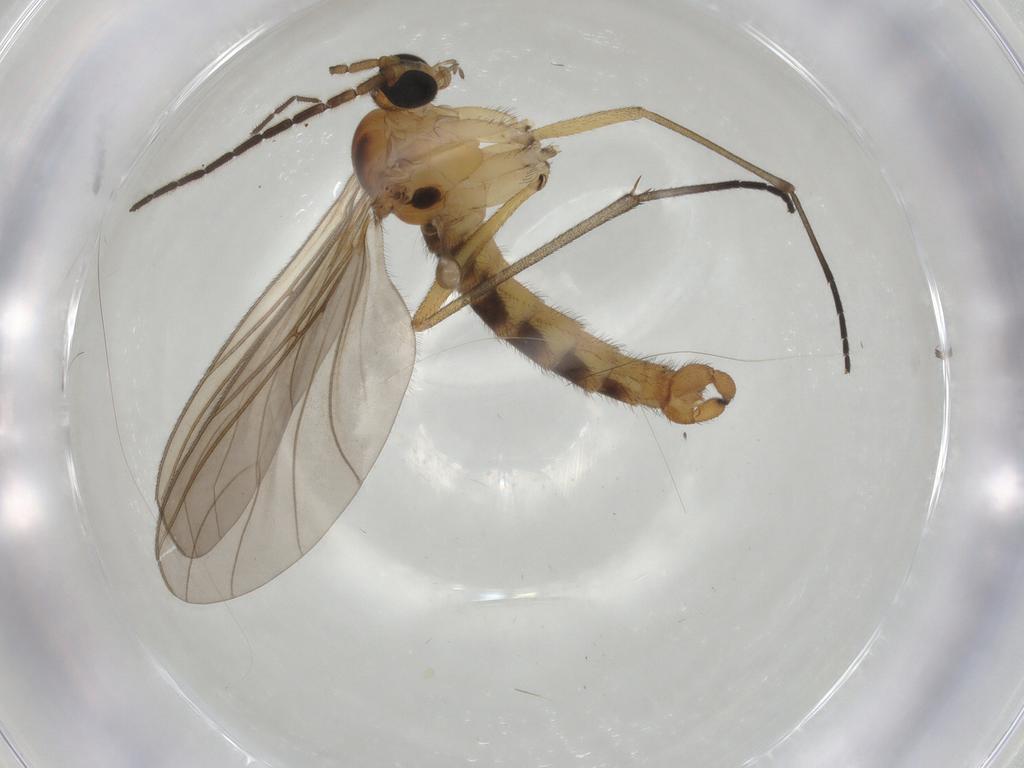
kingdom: Animalia
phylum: Arthropoda
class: Insecta
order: Diptera
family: Sciaridae
